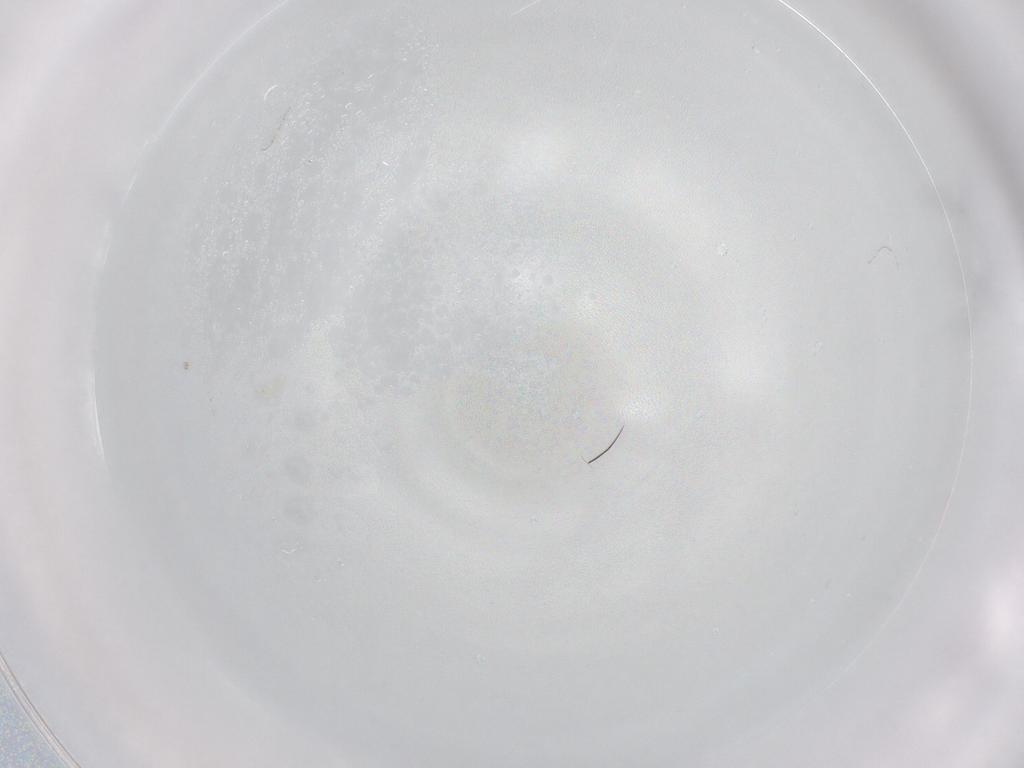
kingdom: Animalia
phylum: Arthropoda
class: Collembola
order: Entomobryomorpha
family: Entomobryidae
